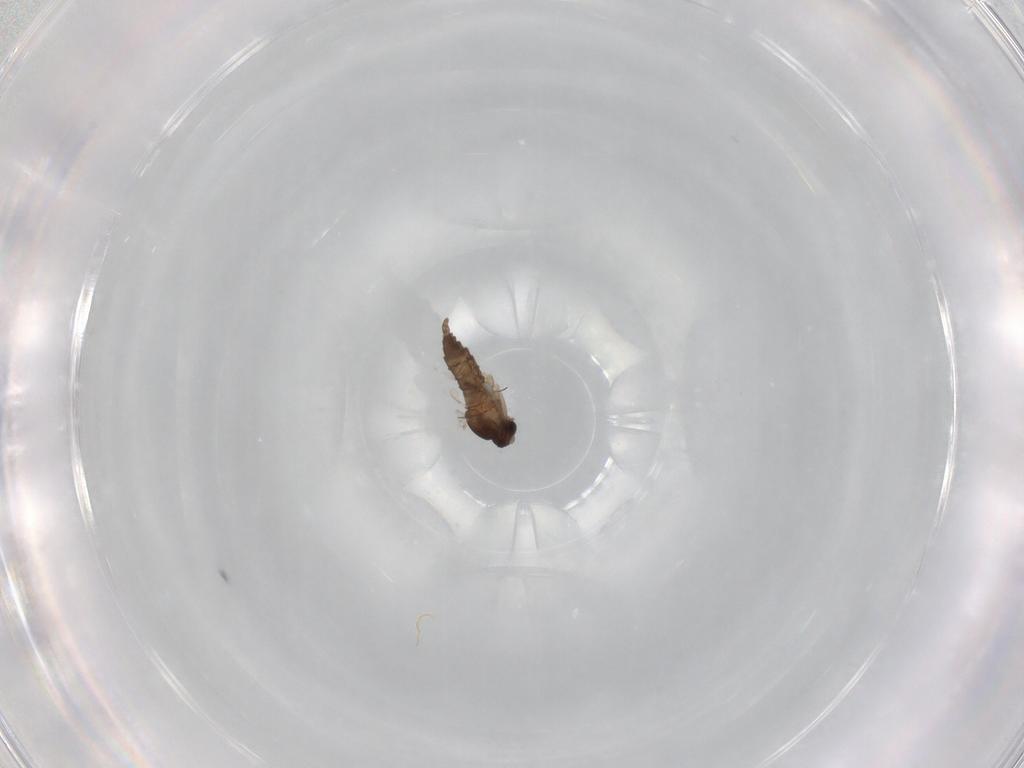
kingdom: Animalia
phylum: Arthropoda
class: Insecta
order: Diptera
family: Cecidomyiidae
